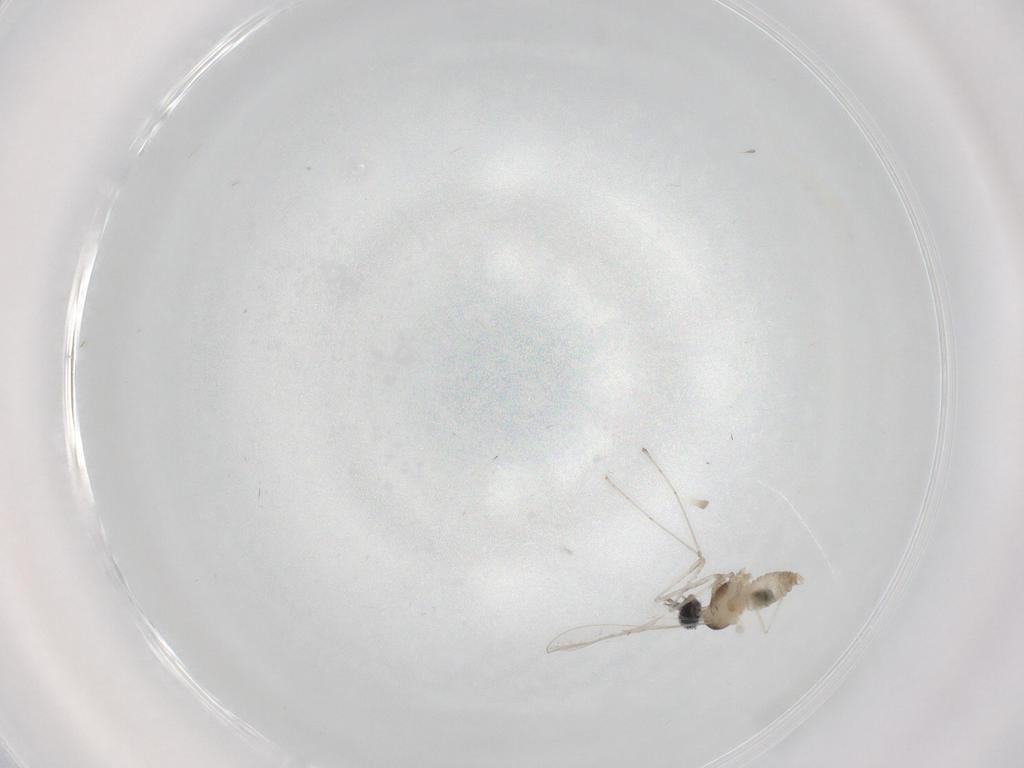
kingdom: Animalia
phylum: Arthropoda
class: Insecta
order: Diptera
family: Cecidomyiidae
